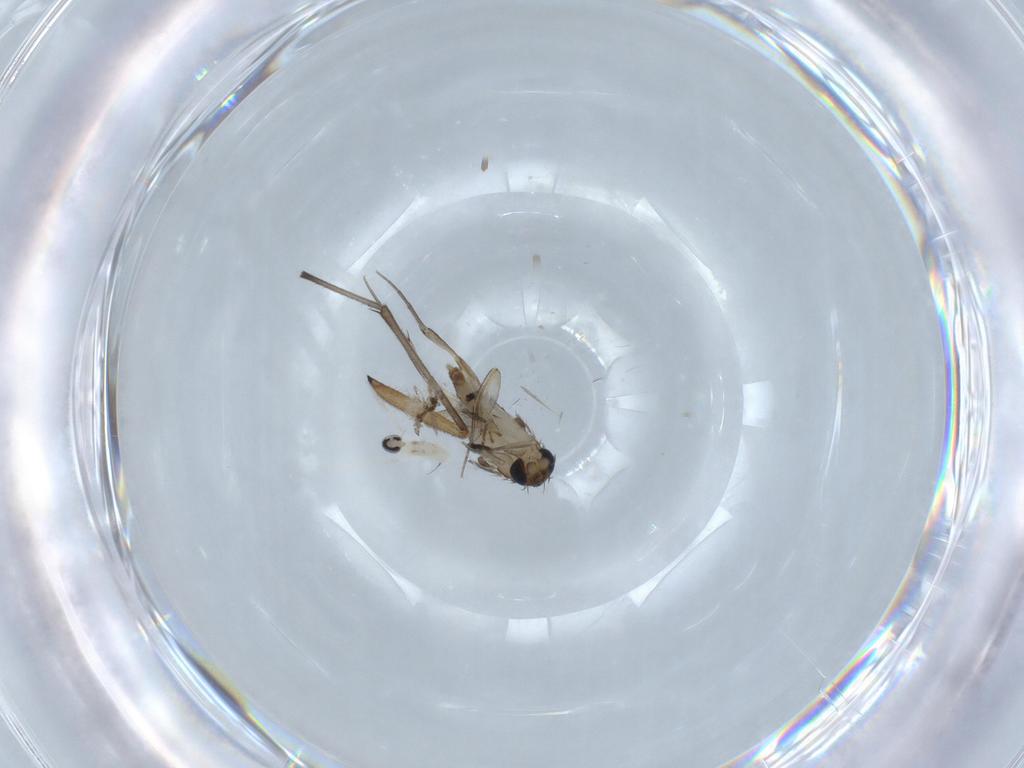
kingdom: Animalia
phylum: Arthropoda
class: Insecta
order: Diptera
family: Phoridae
